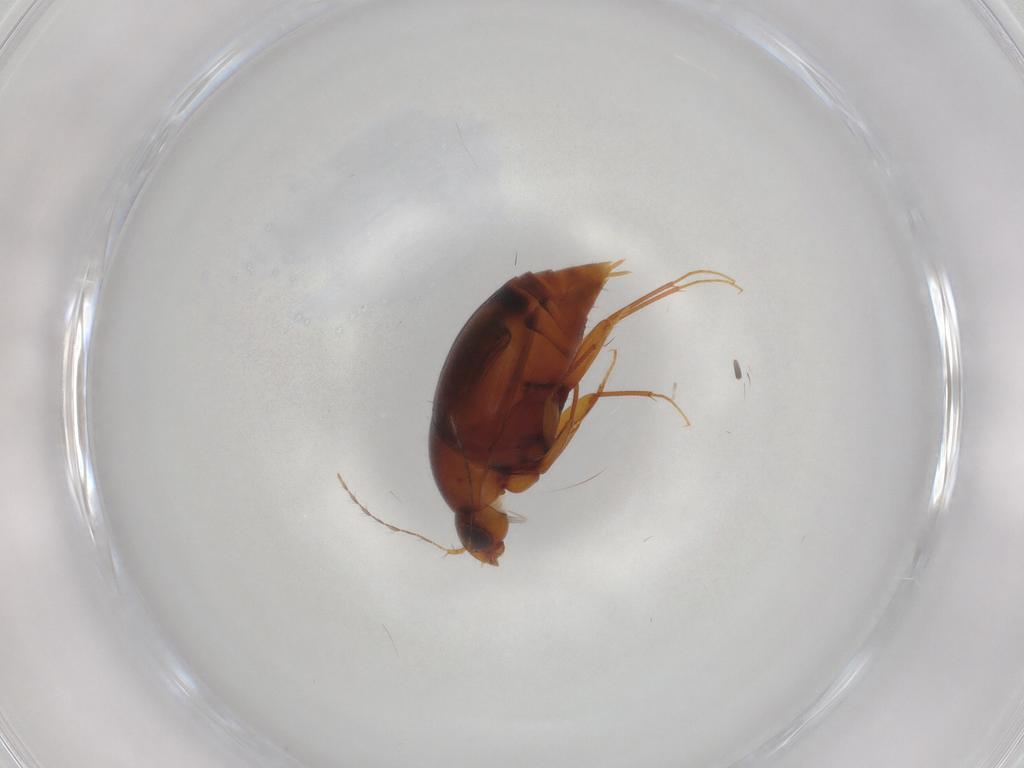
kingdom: Animalia
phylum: Arthropoda
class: Insecta
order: Coleoptera
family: Staphylinidae
